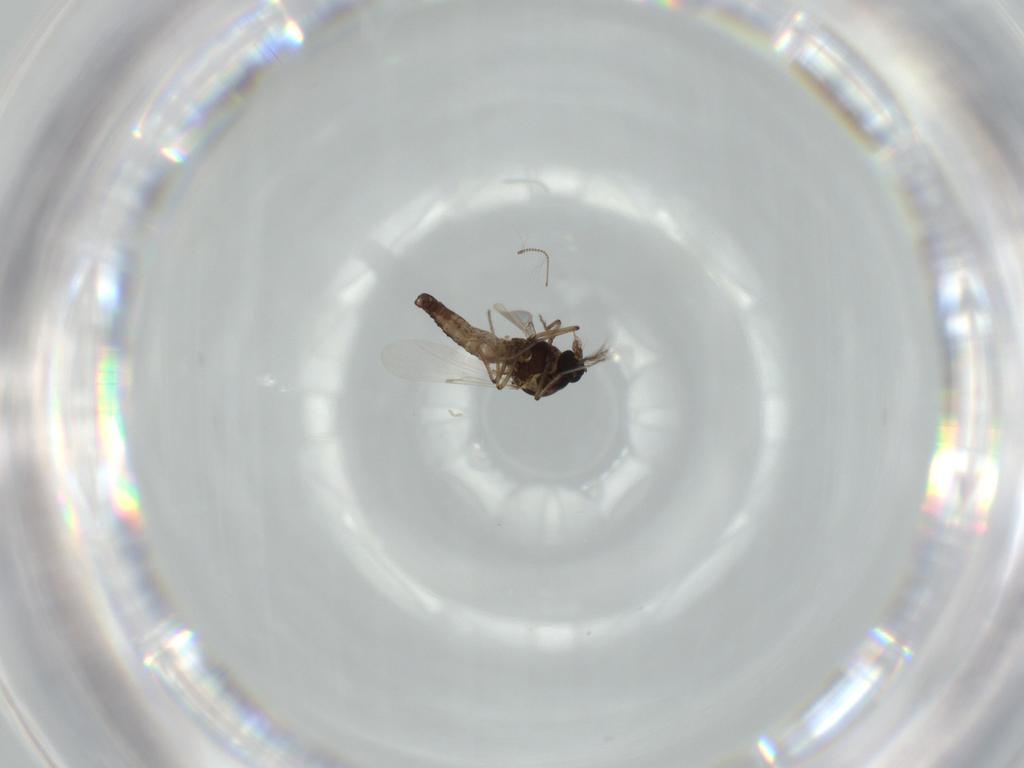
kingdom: Animalia
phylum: Arthropoda
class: Insecta
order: Diptera
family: Ceratopogonidae
